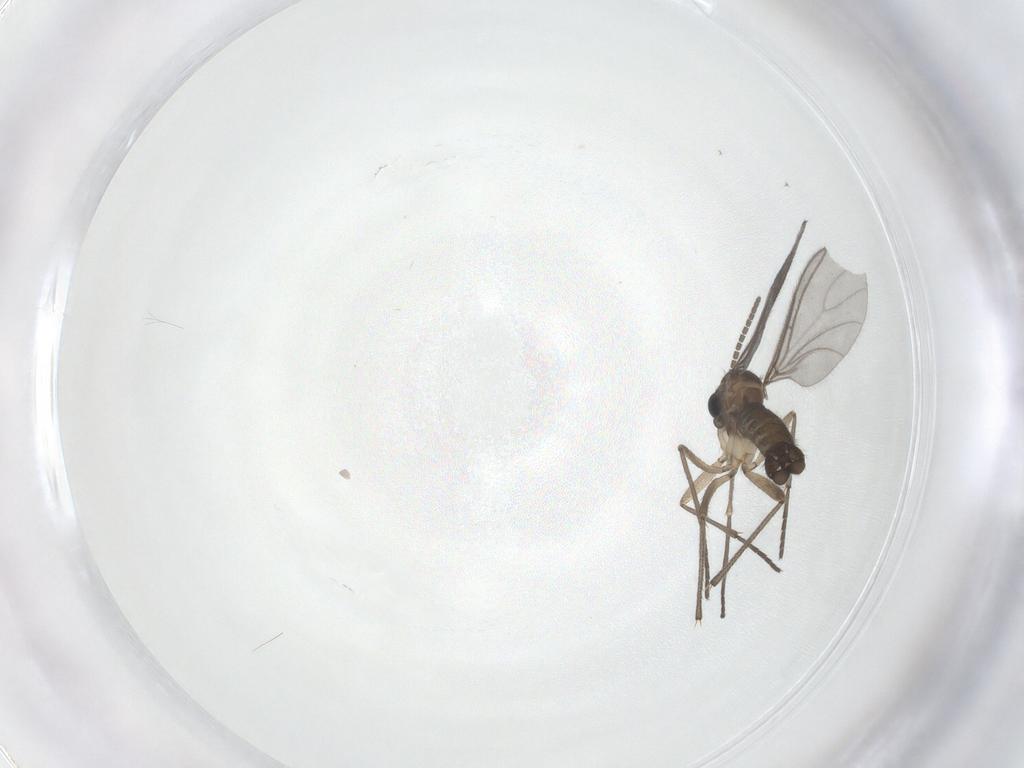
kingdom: Animalia
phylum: Arthropoda
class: Insecta
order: Diptera
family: Sciaridae
